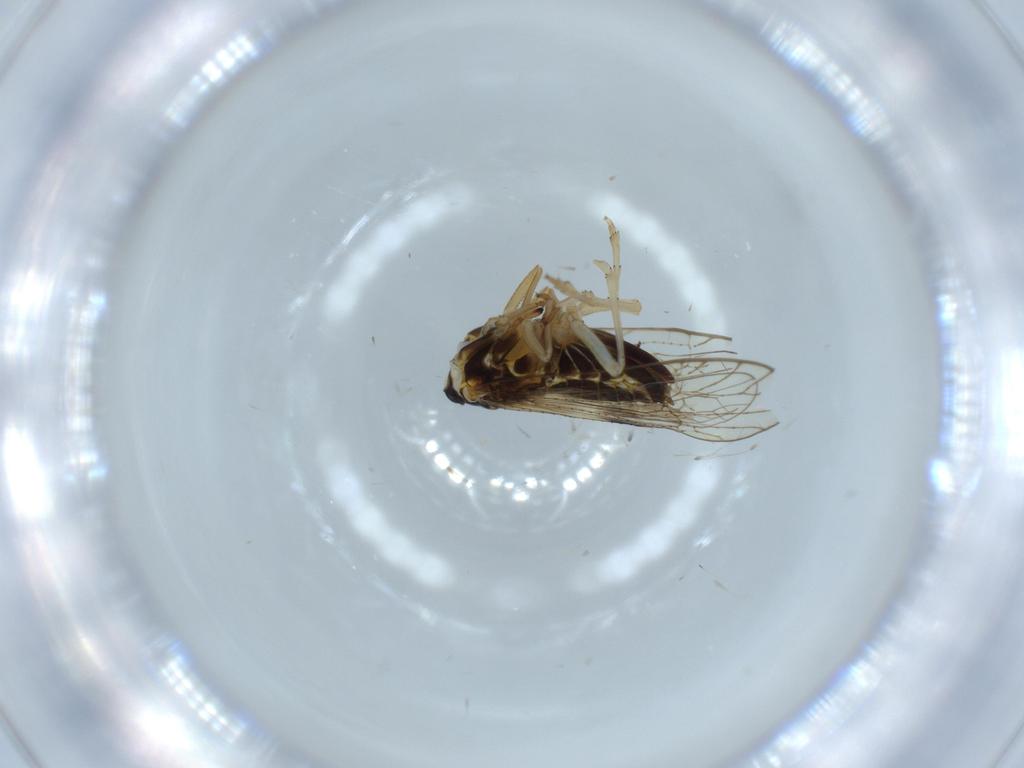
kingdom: Animalia
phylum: Arthropoda
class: Insecta
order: Diptera
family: Cecidomyiidae
